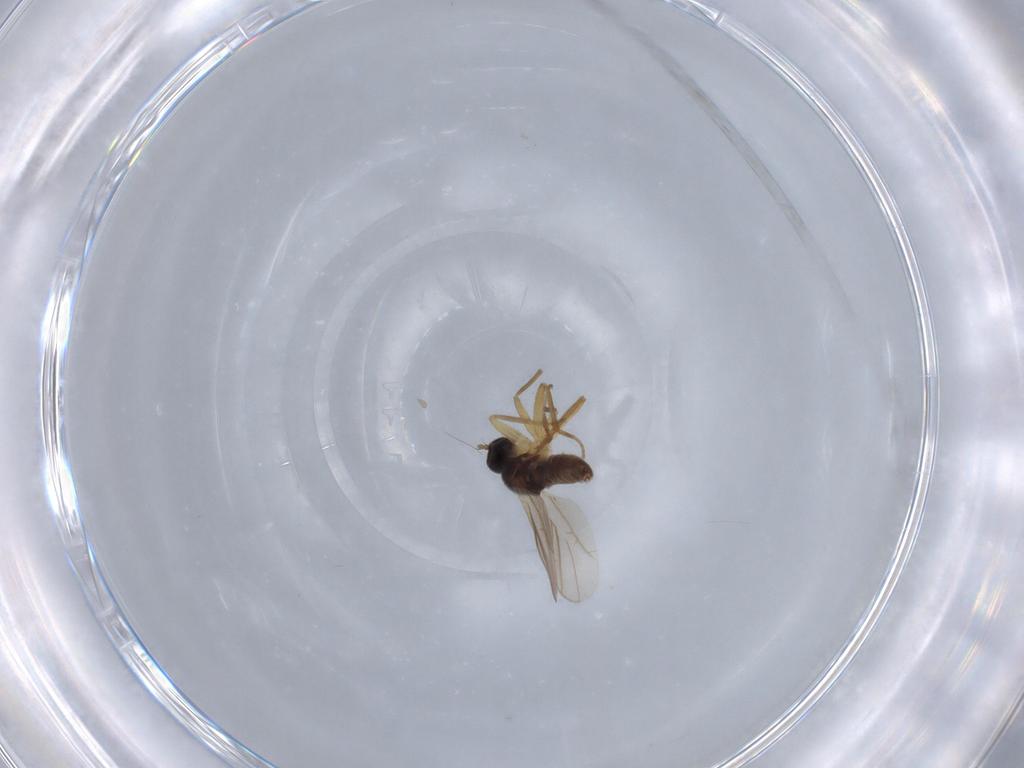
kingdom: Animalia
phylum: Arthropoda
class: Insecta
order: Diptera
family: Hybotidae
